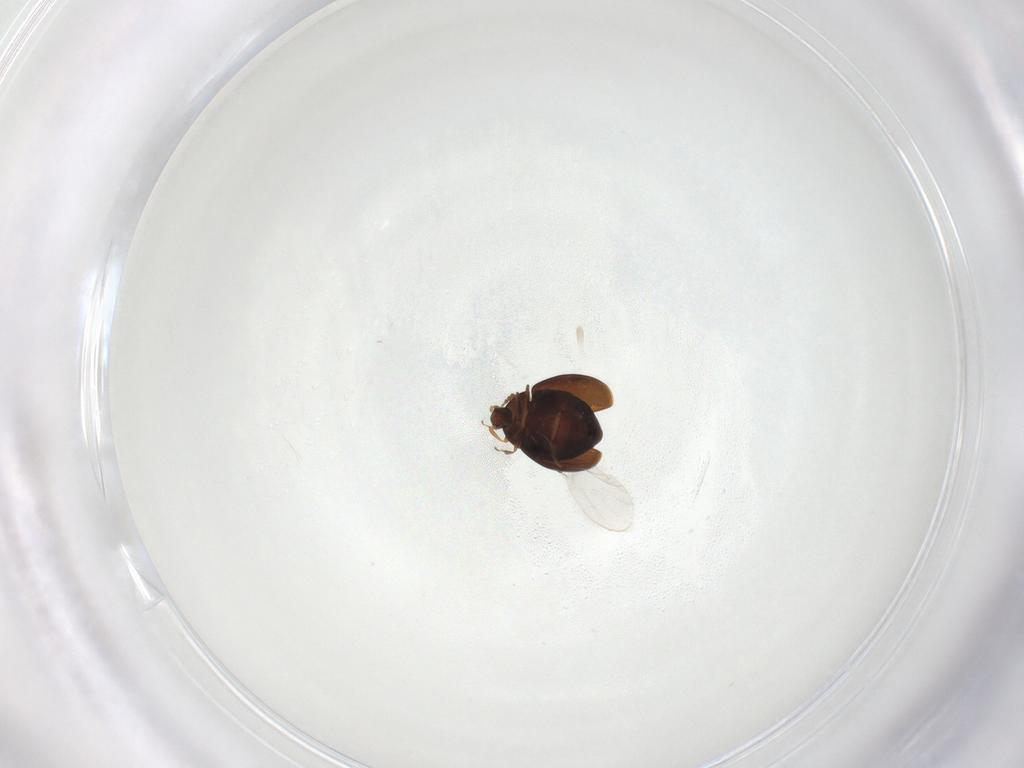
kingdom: Animalia
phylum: Arthropoda
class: Insecta
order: Coleoptera
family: Corylophidae
